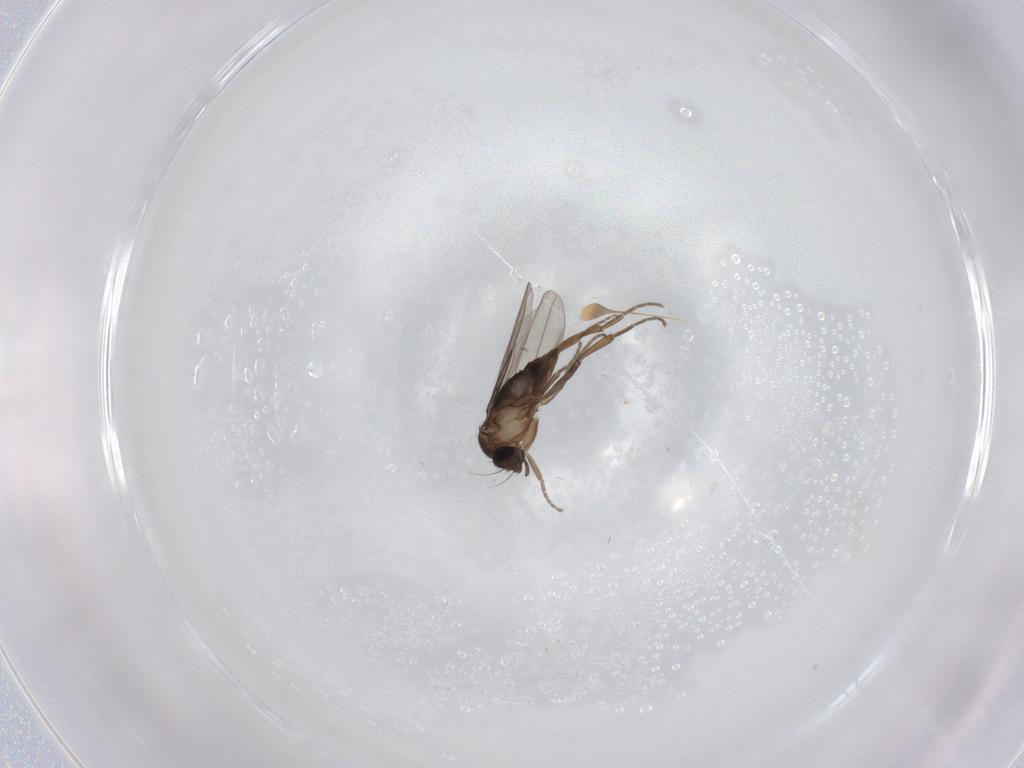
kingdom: Animalia
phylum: Arthropoda
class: Insecta
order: Diptera
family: Phoridae
